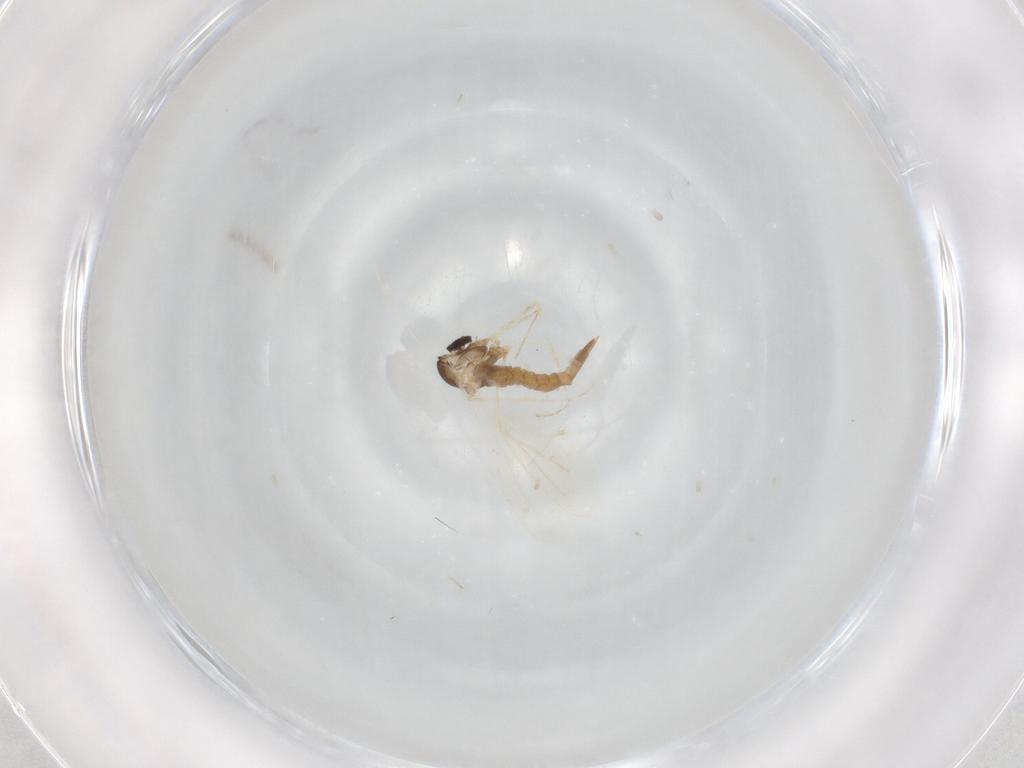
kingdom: Animalia
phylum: Arthropoda
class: Insecta
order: Diptera
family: Cecidomyiidae
